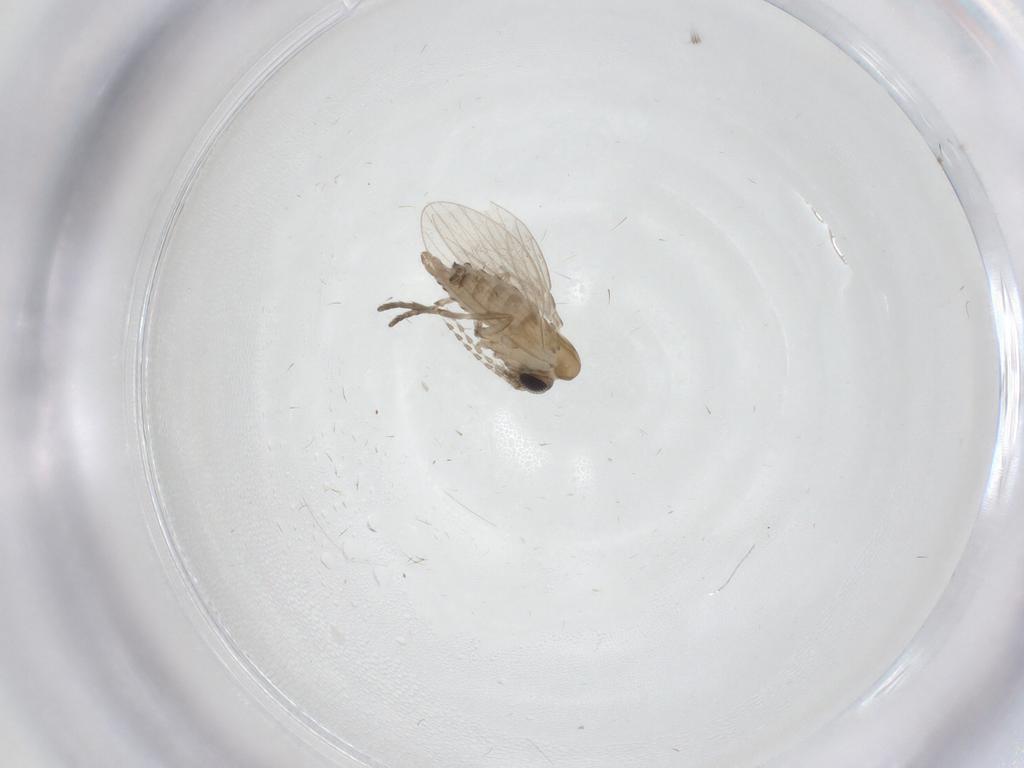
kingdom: Animalia
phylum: Arthropoda
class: Insecta
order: Diptera
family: Psychodidae
